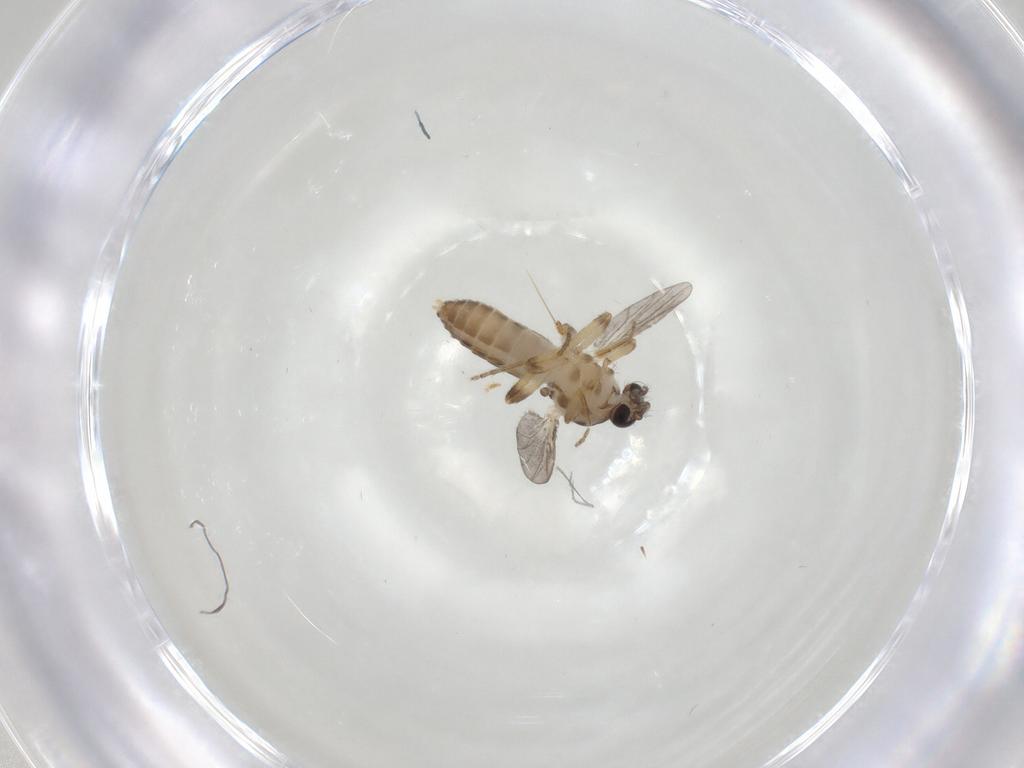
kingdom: Animalia
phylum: Arthropoda
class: Insecta
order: Diptera
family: Ceratopogonidae
